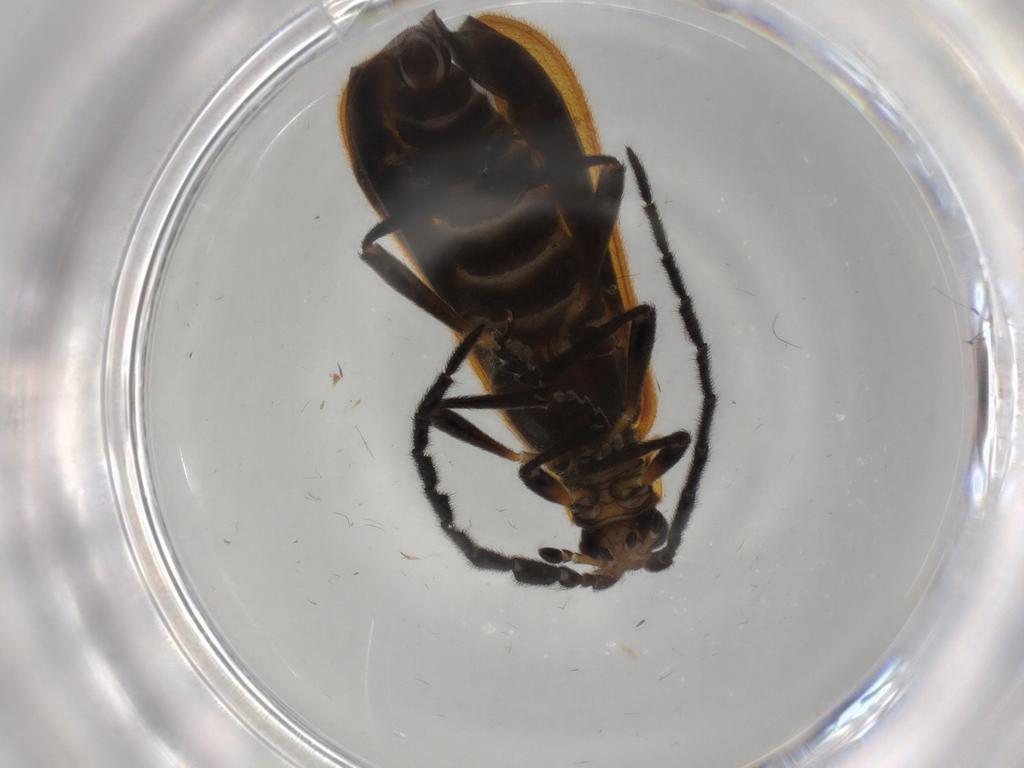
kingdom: Animalia
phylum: Arthropoda
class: Insecta
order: Coleoptera
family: Lycidae
